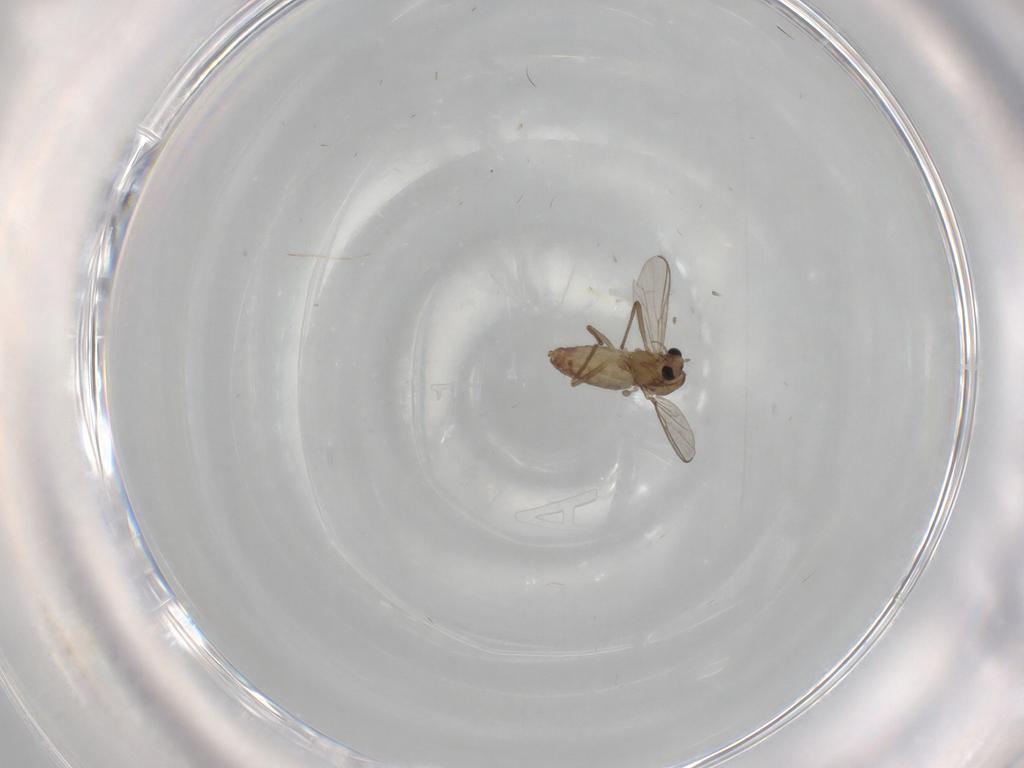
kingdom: Animalia
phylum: Arthropoda
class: Insecta
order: Diptera
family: Chironomidae
